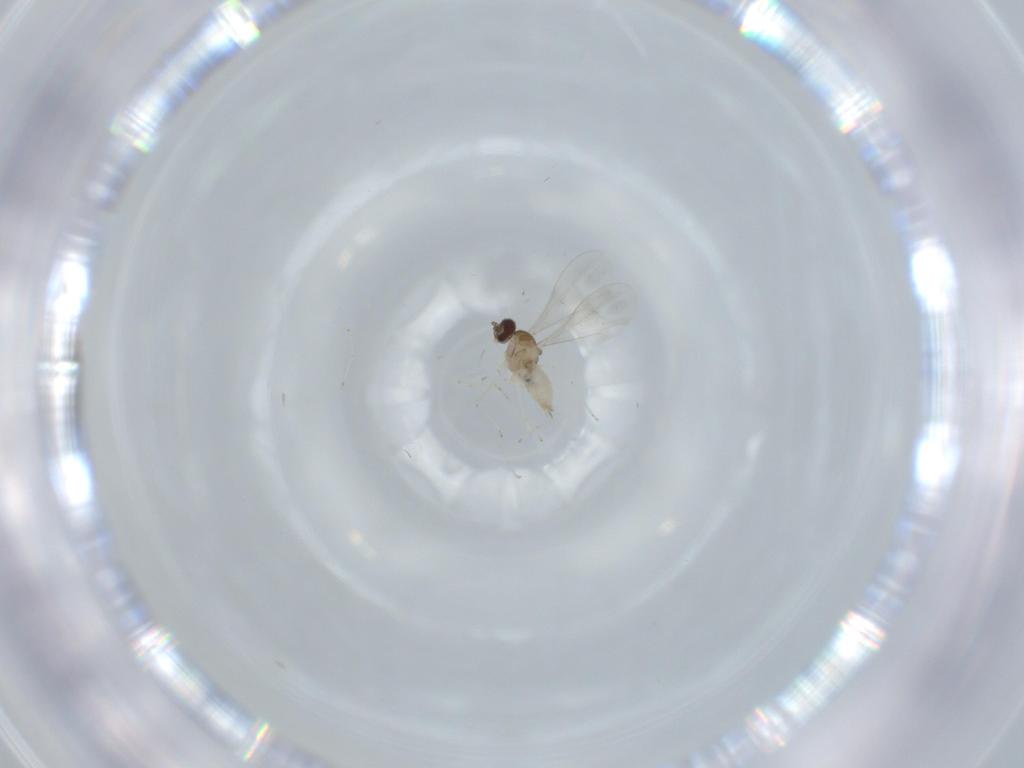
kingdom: Animalia
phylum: Arthropoda
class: Insecta
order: Diptera
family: Cecidomyiidae
